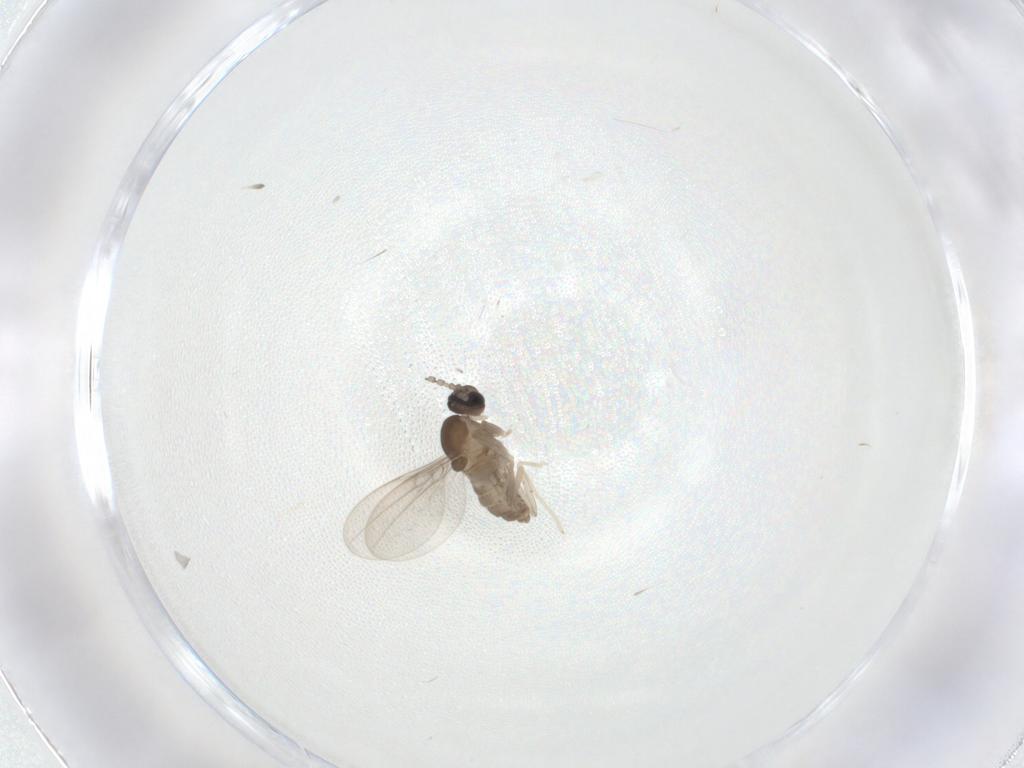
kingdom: Animalia
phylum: Arthropoda
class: Insecta
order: Diptera
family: Cecidomyiidae
